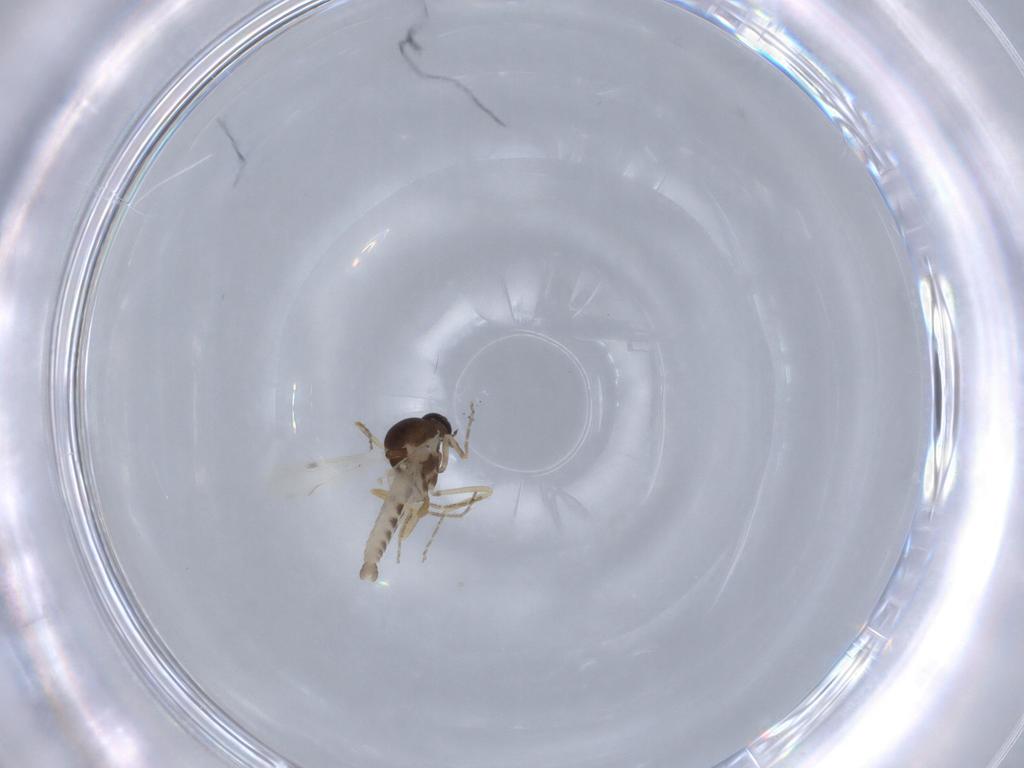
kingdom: Animalia
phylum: Arthropoda
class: Insecta
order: Diptera
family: Ceratopogonidae
